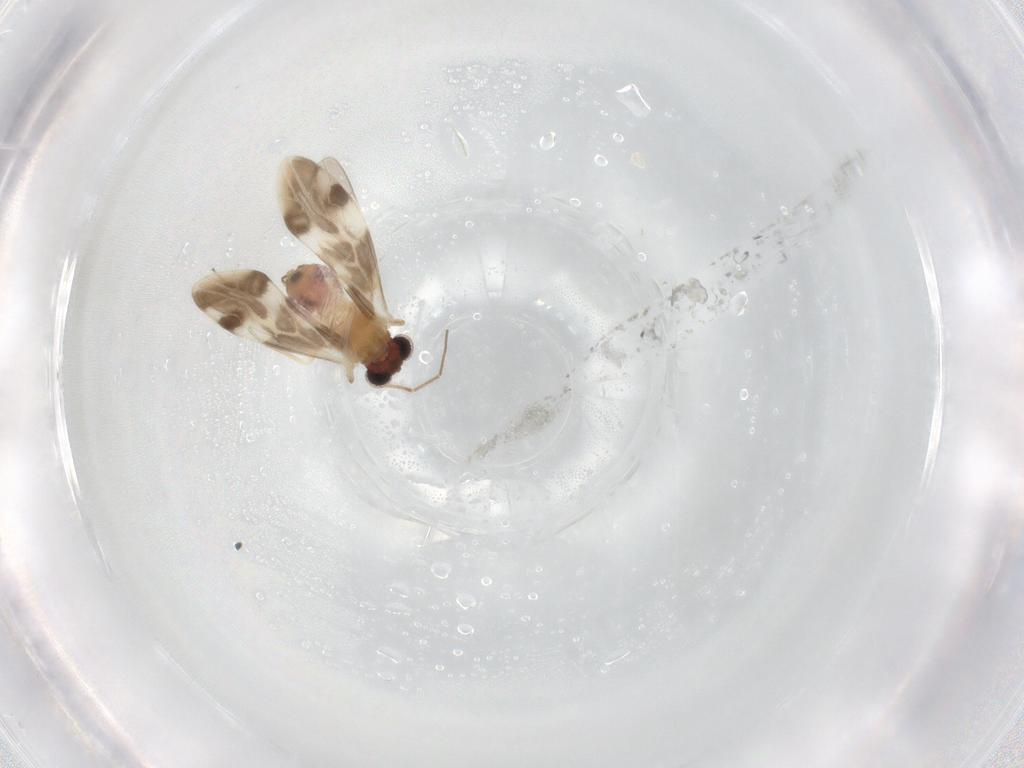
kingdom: Animalia
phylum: Arthropoda
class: Insecta
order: Psocodea
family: Caeciliusidae
